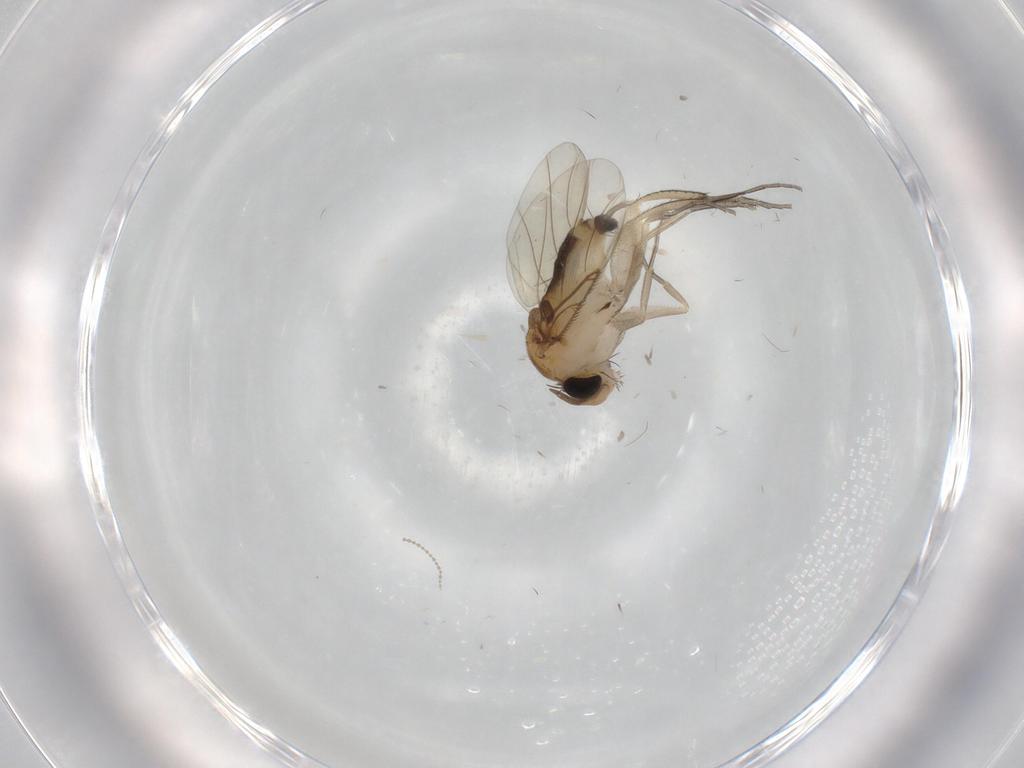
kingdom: Animalia
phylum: Arthropoda
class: Insecta
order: Diptera
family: Phoridae
